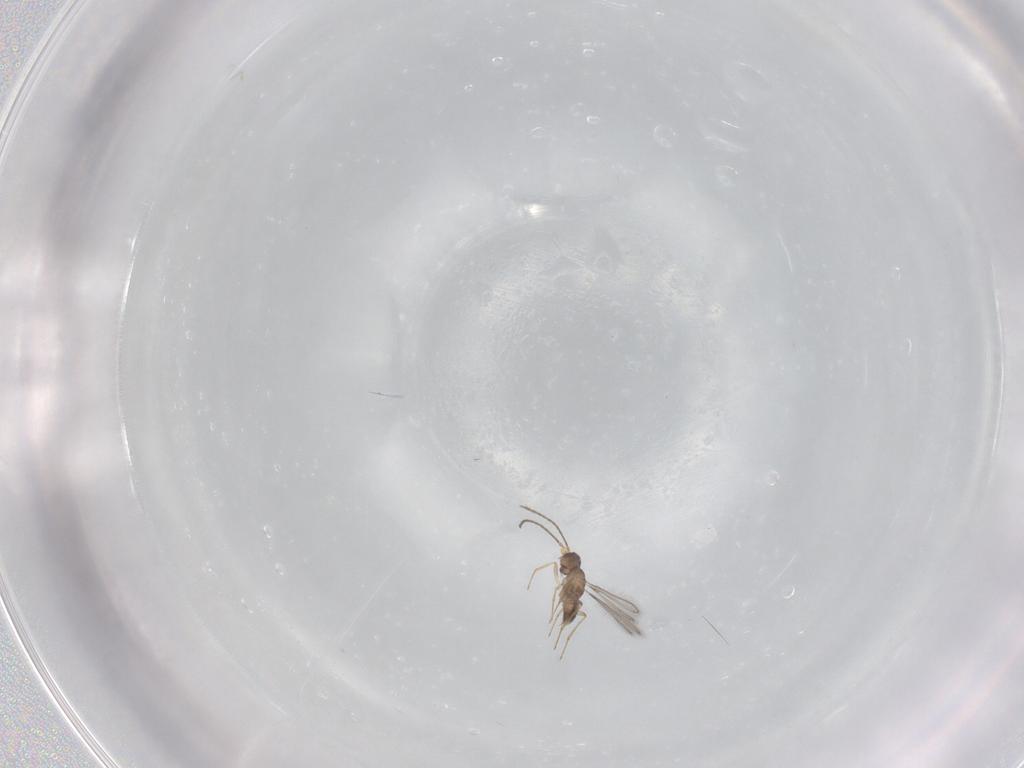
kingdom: Animalia
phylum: Arthropoda
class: Insecta
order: Hymenoptera
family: Mymaridae
